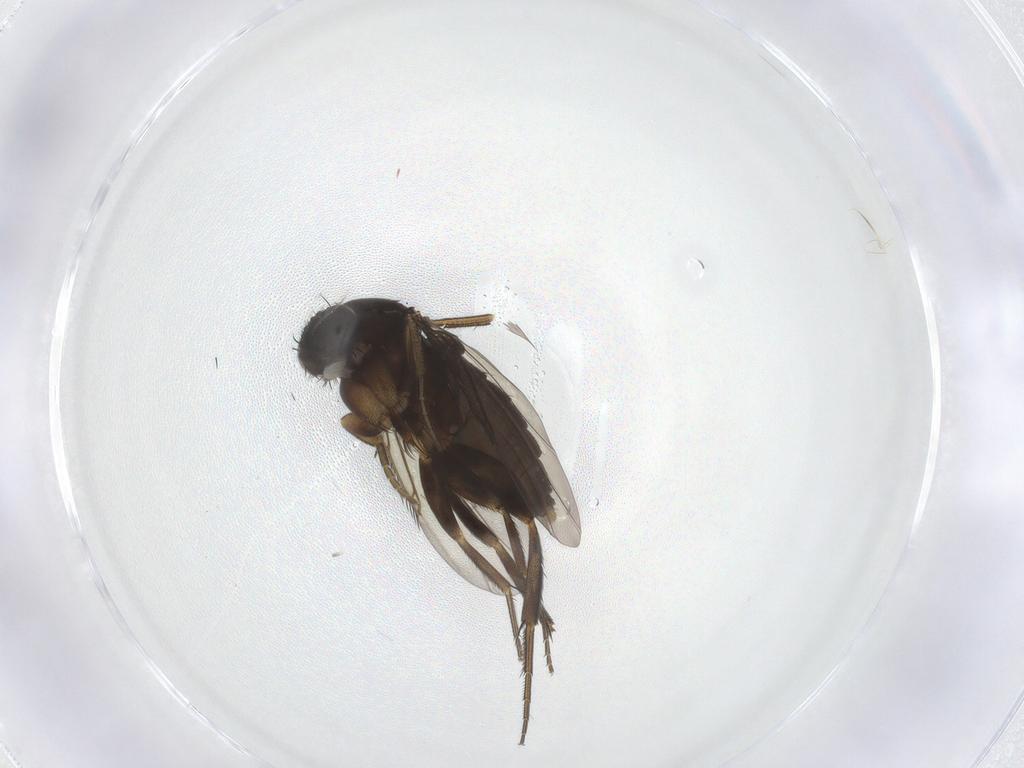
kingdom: Animalia
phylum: Arthropoda
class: Insecta
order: Diptera
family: Phoridae
